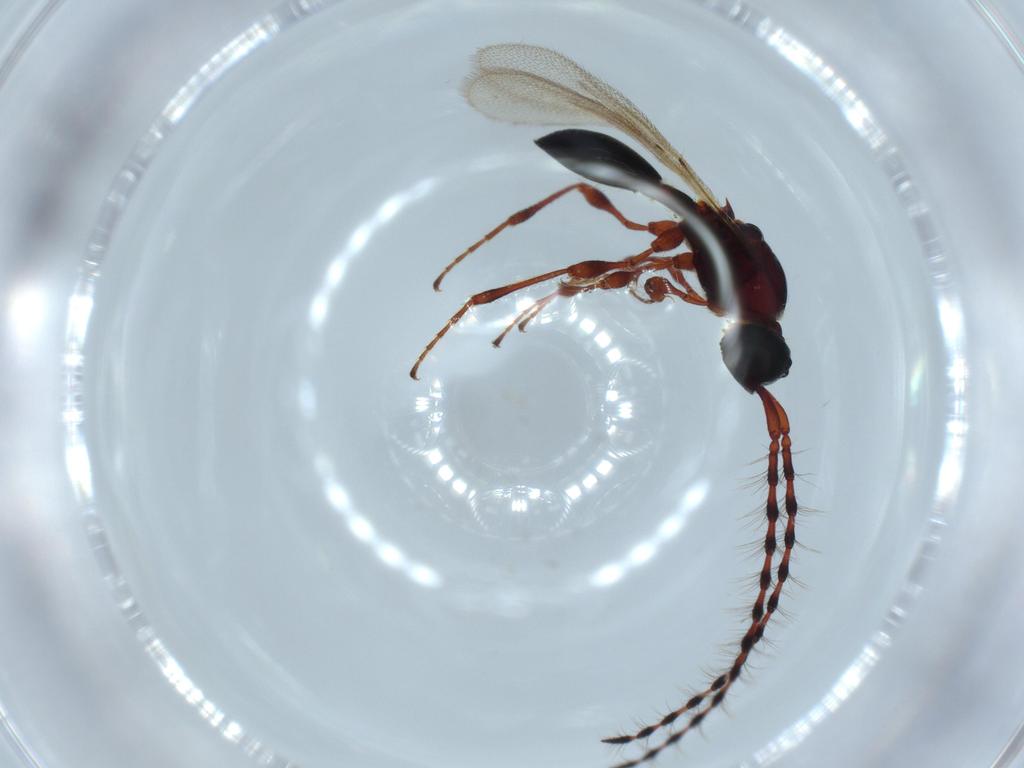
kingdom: Animalia
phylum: Arthropoda
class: Insecta
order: Hymenoptera
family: Diapriidae
